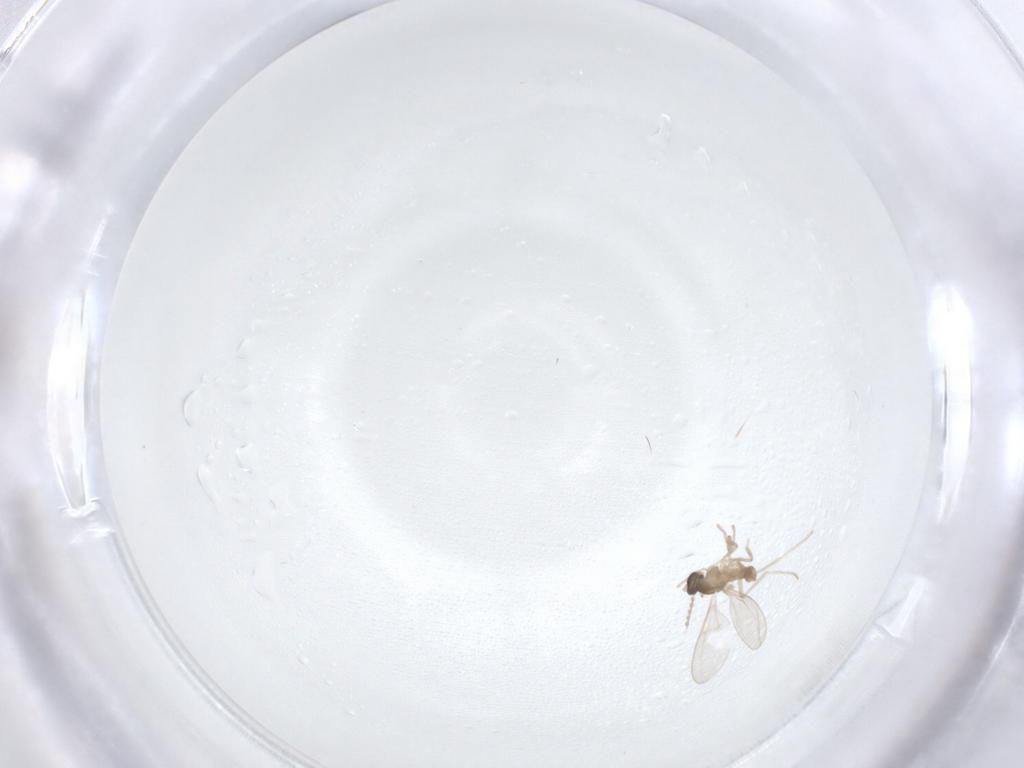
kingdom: Animalia
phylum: Arthropoda
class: Insecta
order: Diptera
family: Cecidomyiidae
